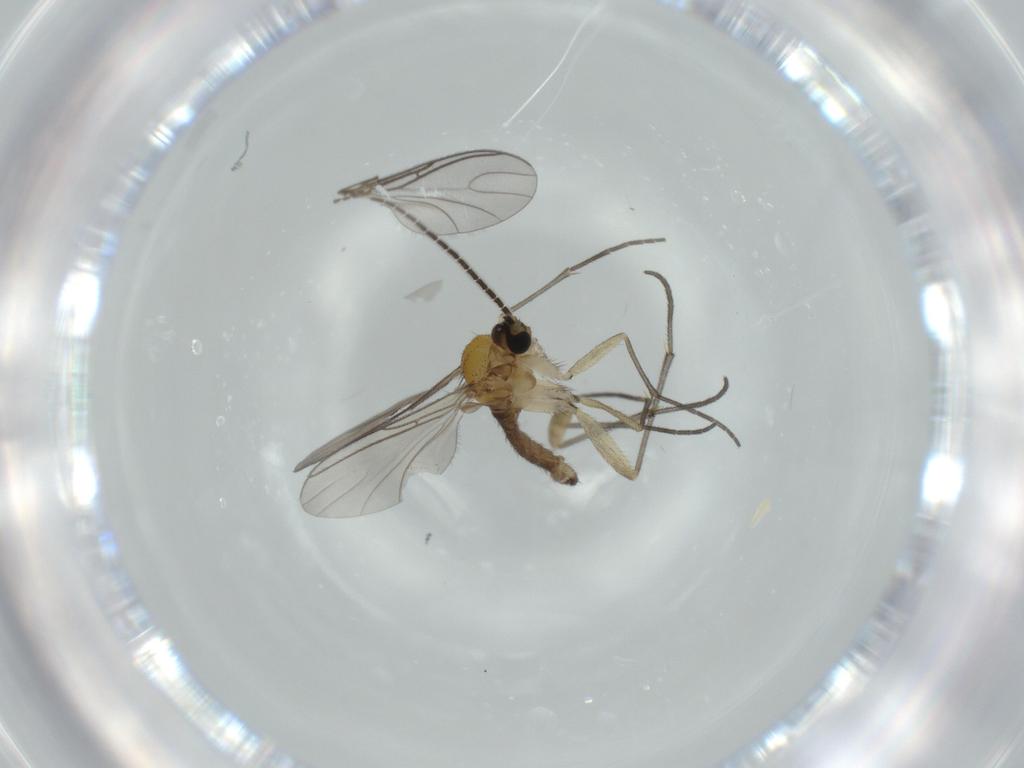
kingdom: Animalia
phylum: Arthropoda
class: Insecta
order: Diptera
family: Sciaridae
